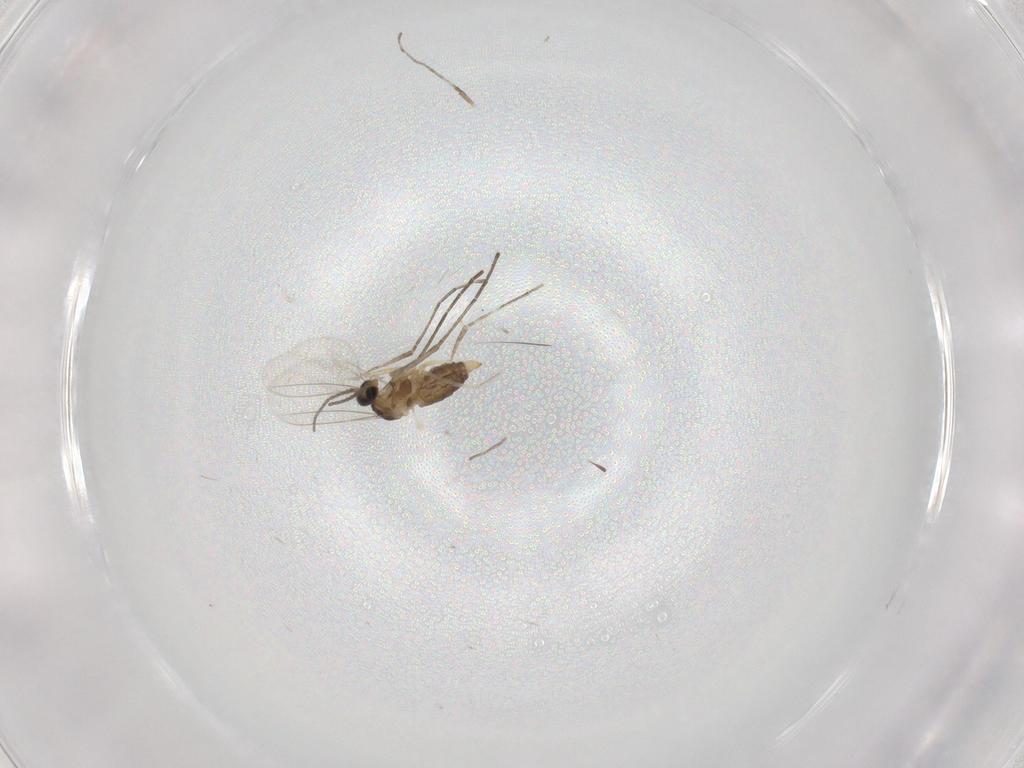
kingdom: Animalia
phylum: Arthropoda
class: Insecta
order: Diptera
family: Cecidomyiidae
